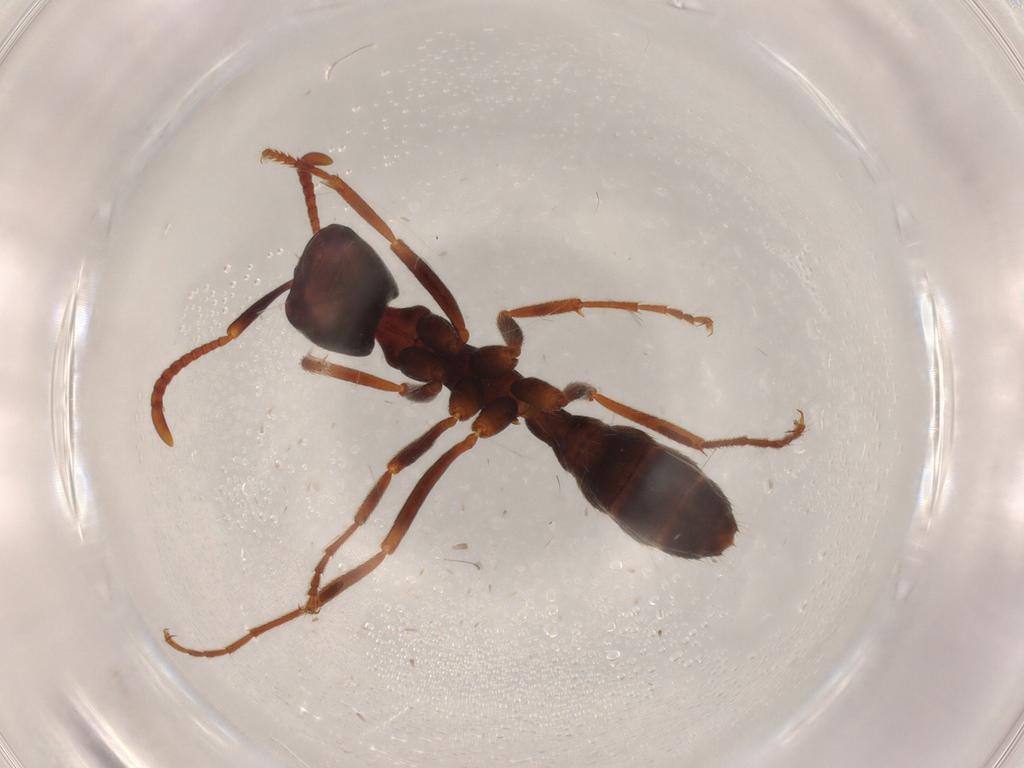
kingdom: Animalia
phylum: Arthropoda
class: Insecta
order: Hymenoptera
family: Formicidae
